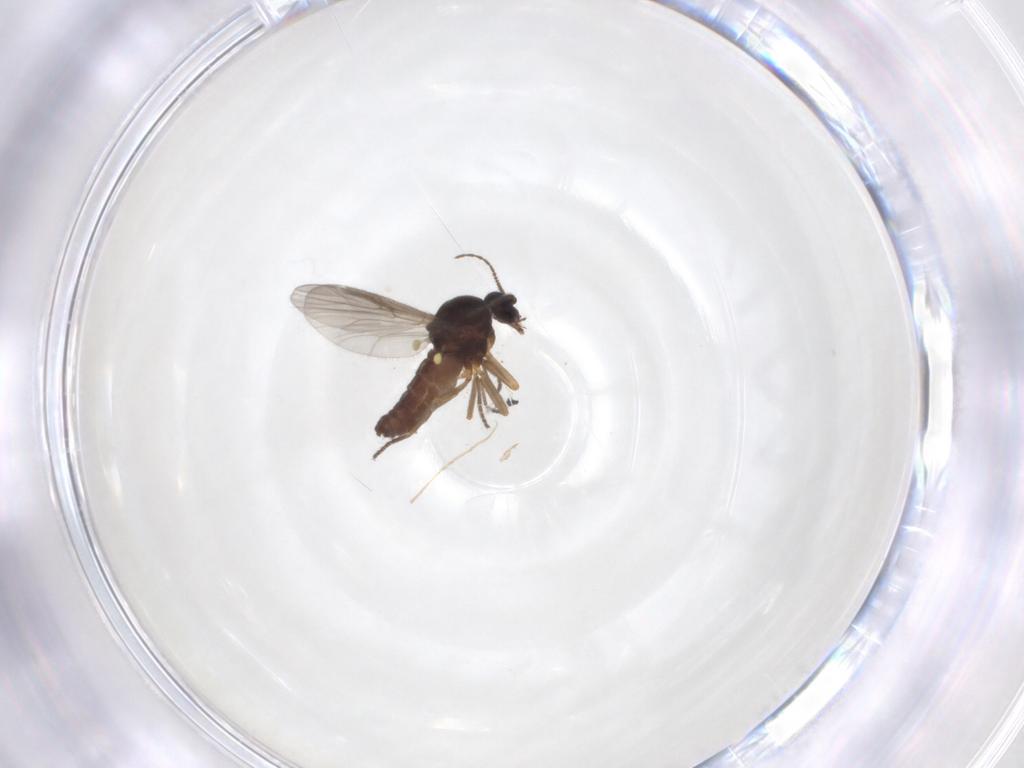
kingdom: Animalia
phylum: Arthropoda
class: Insecta
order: Diptera
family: Ceratopogonidae
